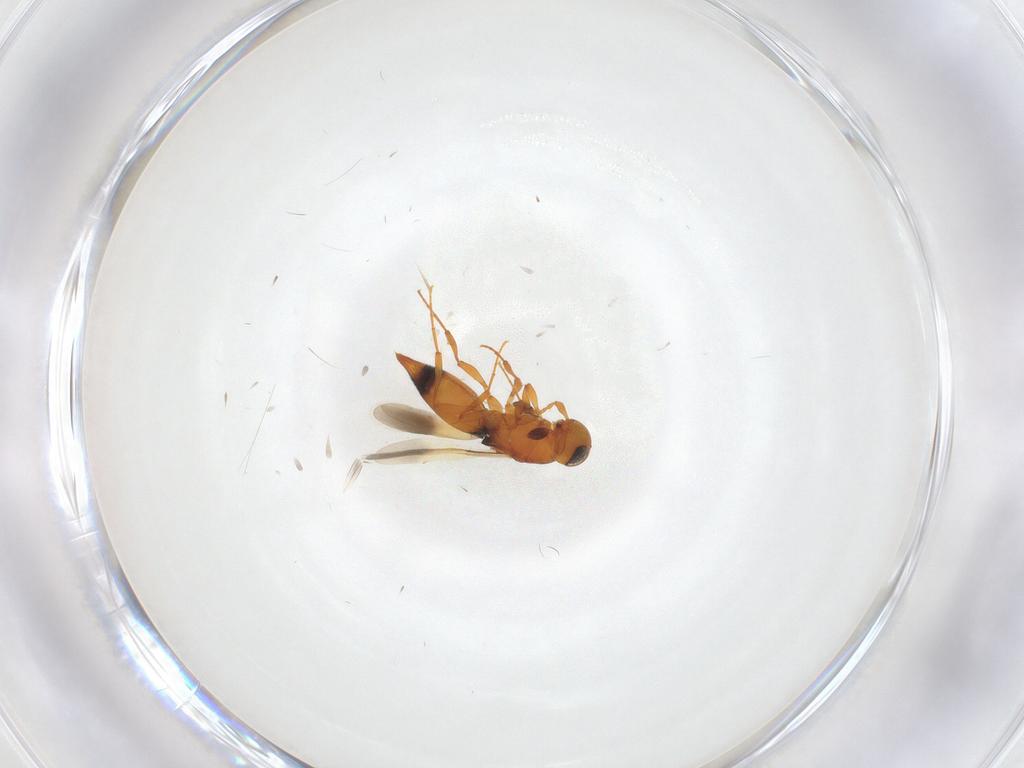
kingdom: Animalia
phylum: Arthropoda
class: Insecta
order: Hymenoptera
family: Platygastridae
